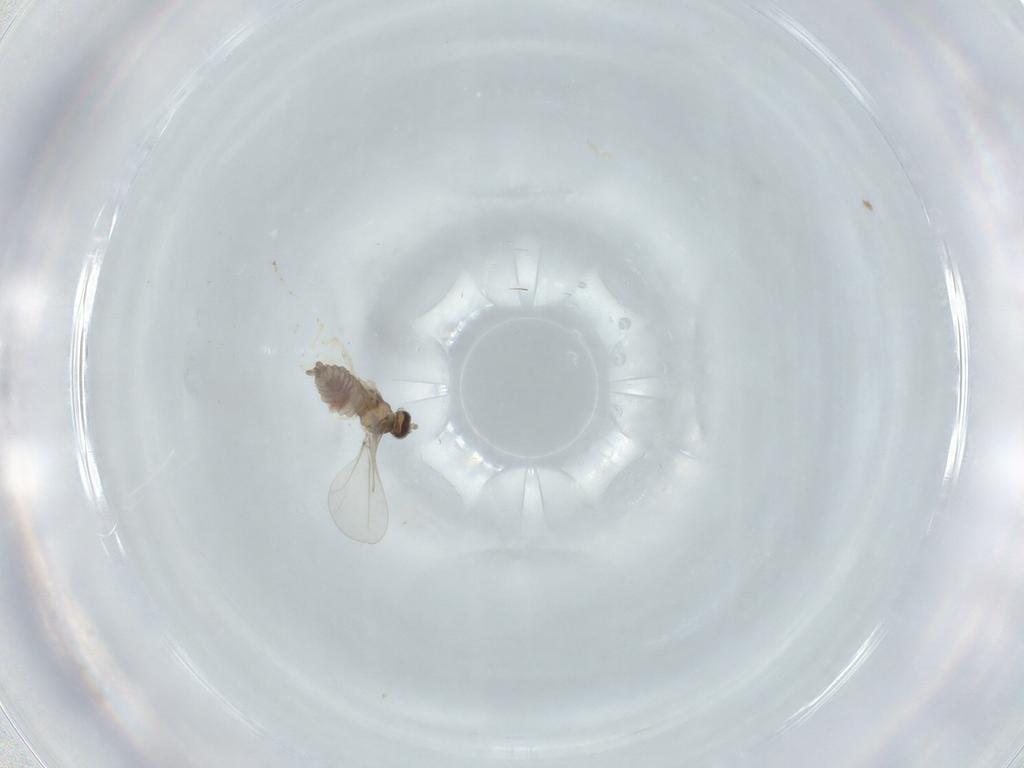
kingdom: Animalia
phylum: Arthropoda
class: Insecta
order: Diptera
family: Cecidomyiidae
